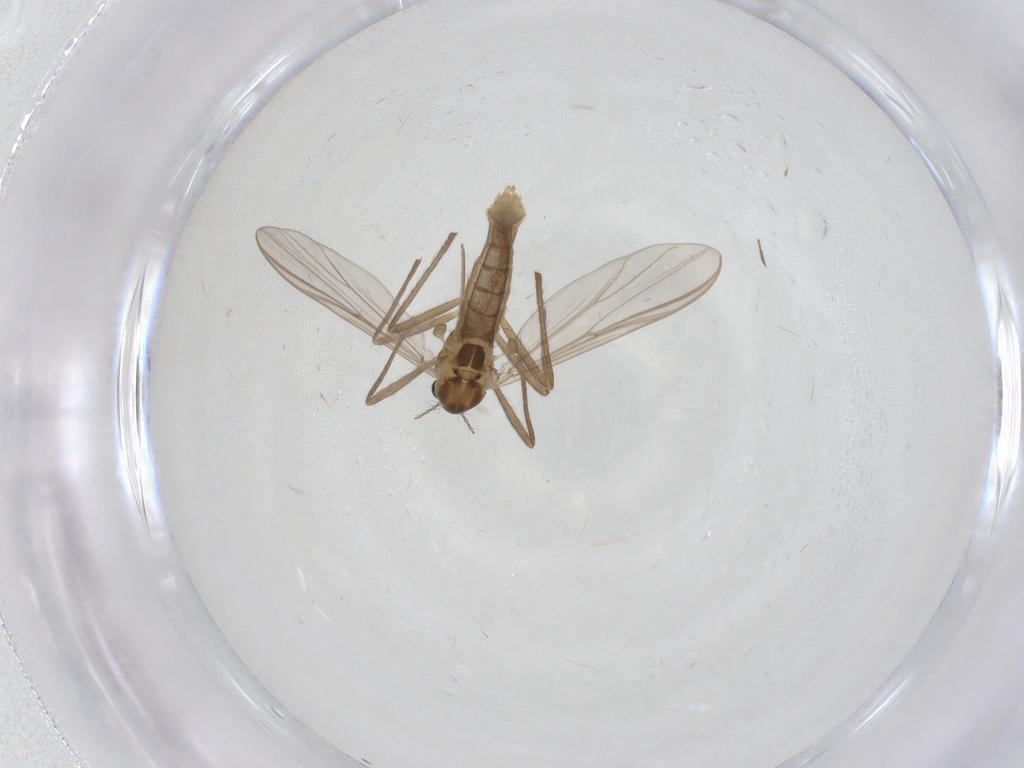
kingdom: Animalia
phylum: Arthropoda
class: Insecta
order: Diptera
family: Chironomidae
